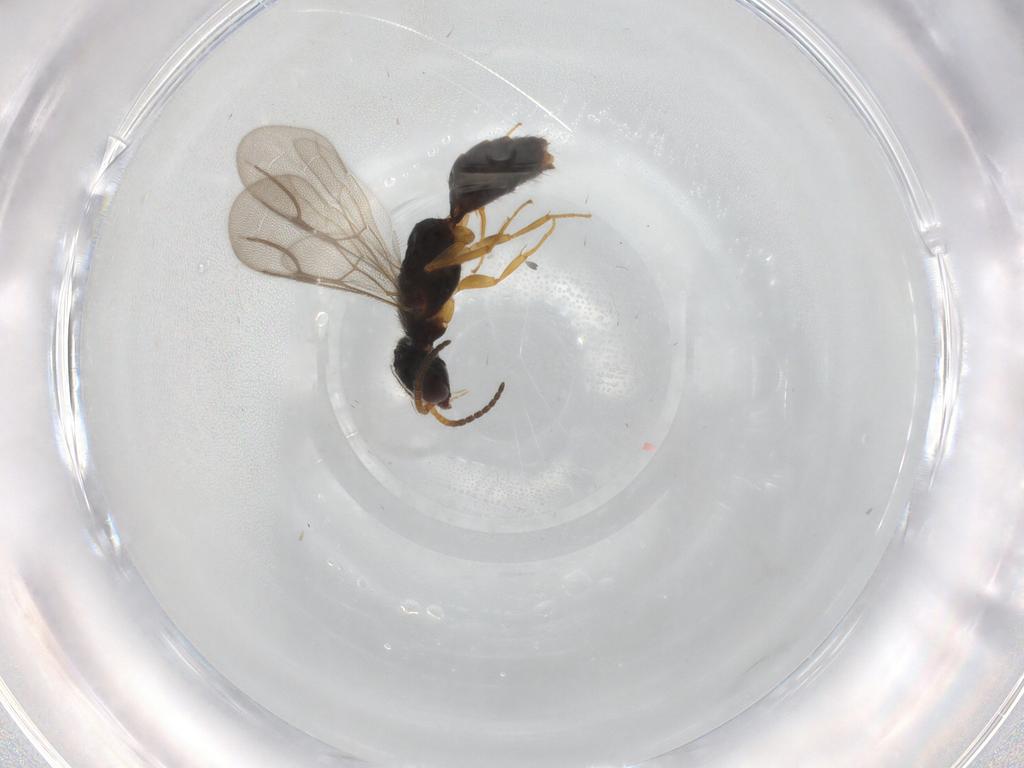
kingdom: Animalia
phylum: Arthropoda
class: Insecta
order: Hymenoptera
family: Bethylidae
